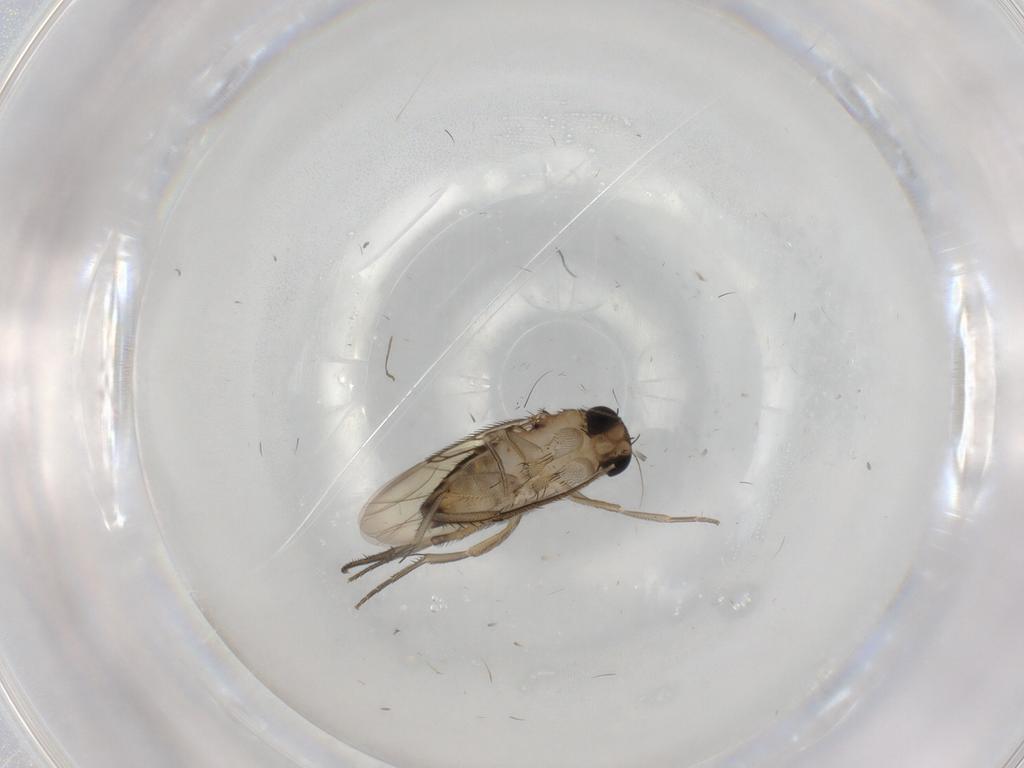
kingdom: Animalia
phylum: Arthropoda
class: Insecta
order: Diptera
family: Phoridae
